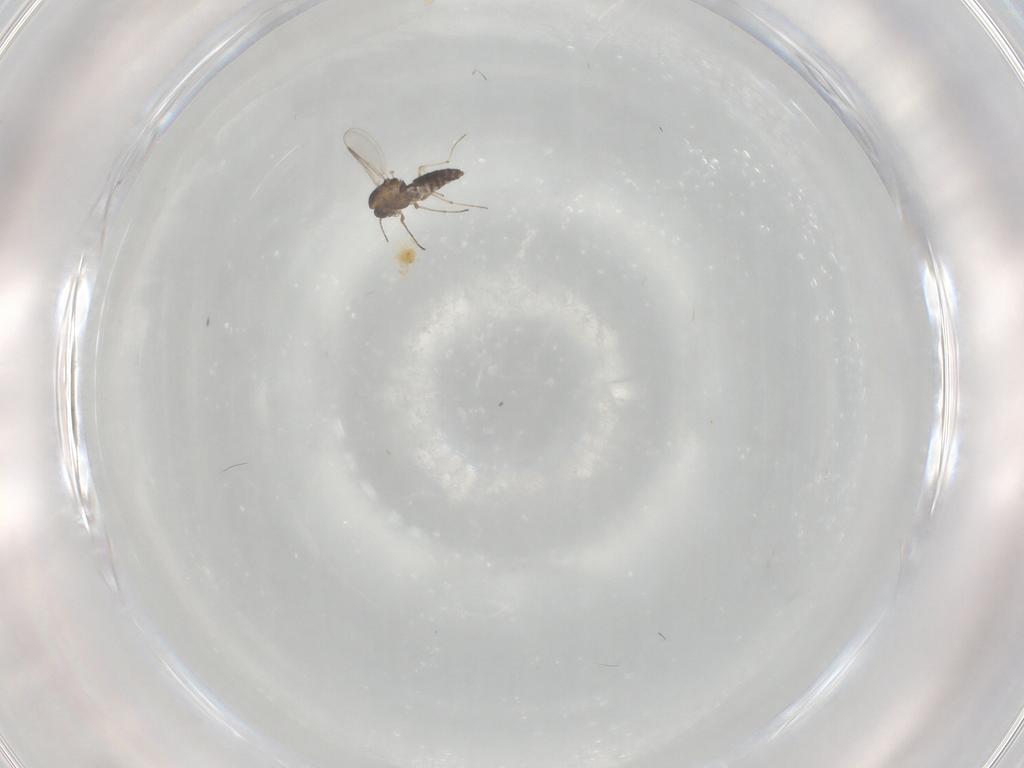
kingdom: Animalia
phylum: Arthropoda
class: Insecta
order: Diptera
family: Chironomidae
